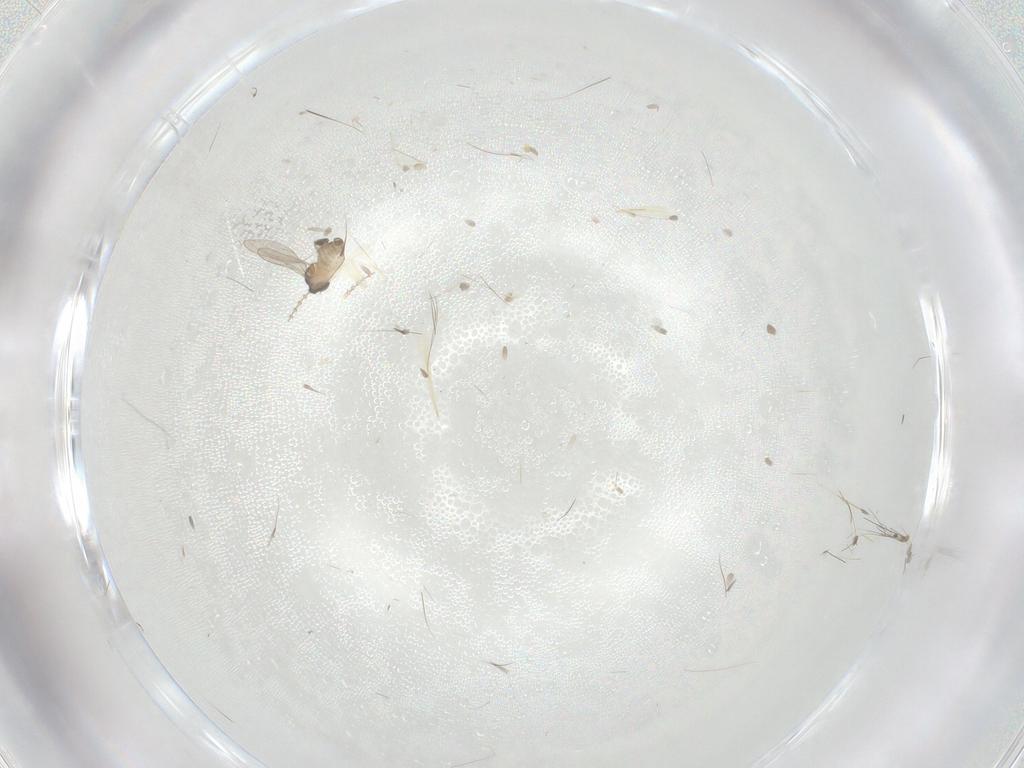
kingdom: Animalia
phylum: Arthropoda
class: Insecta
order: Diptera
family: Cecidomyiidae
